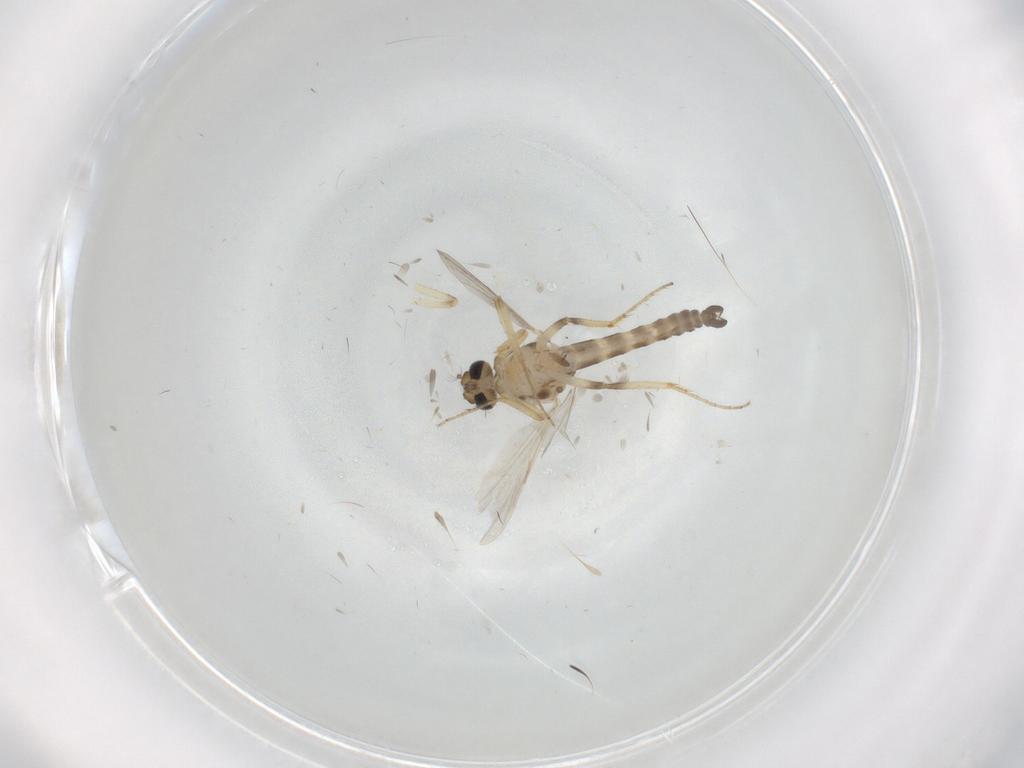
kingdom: Animalia
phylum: Arthropoda
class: Insecta
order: Diptera
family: Ceratopogonidae
